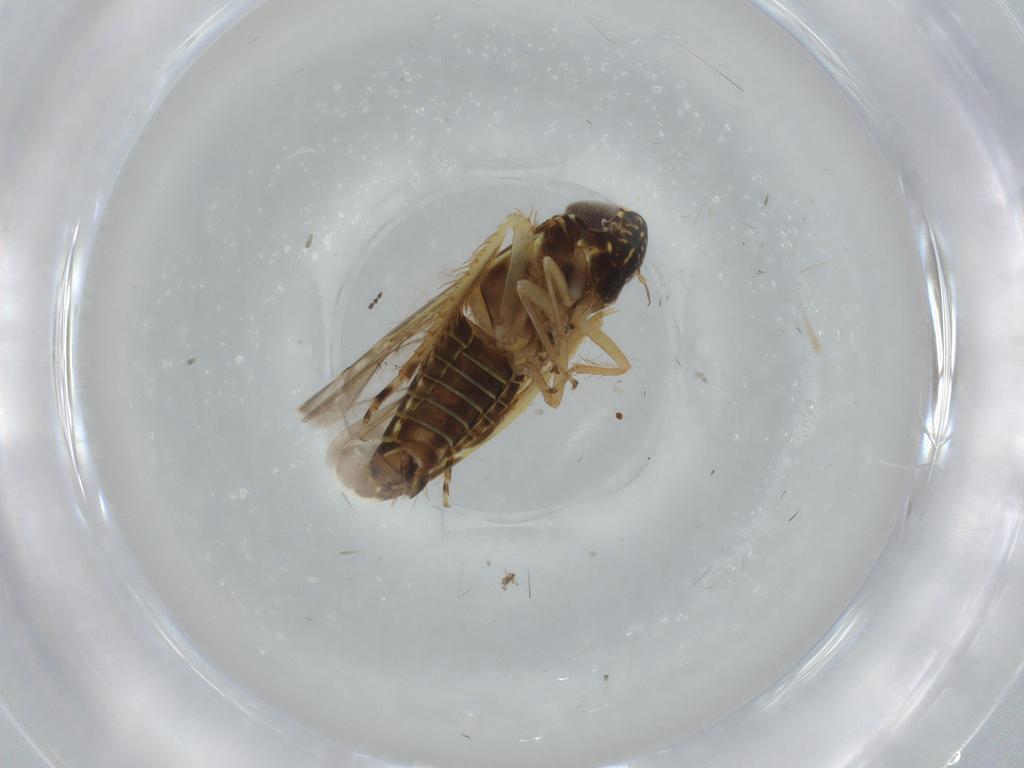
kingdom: Animalia
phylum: Arthropoda
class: Insecta
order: Hemiptera
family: Cicadellidae
